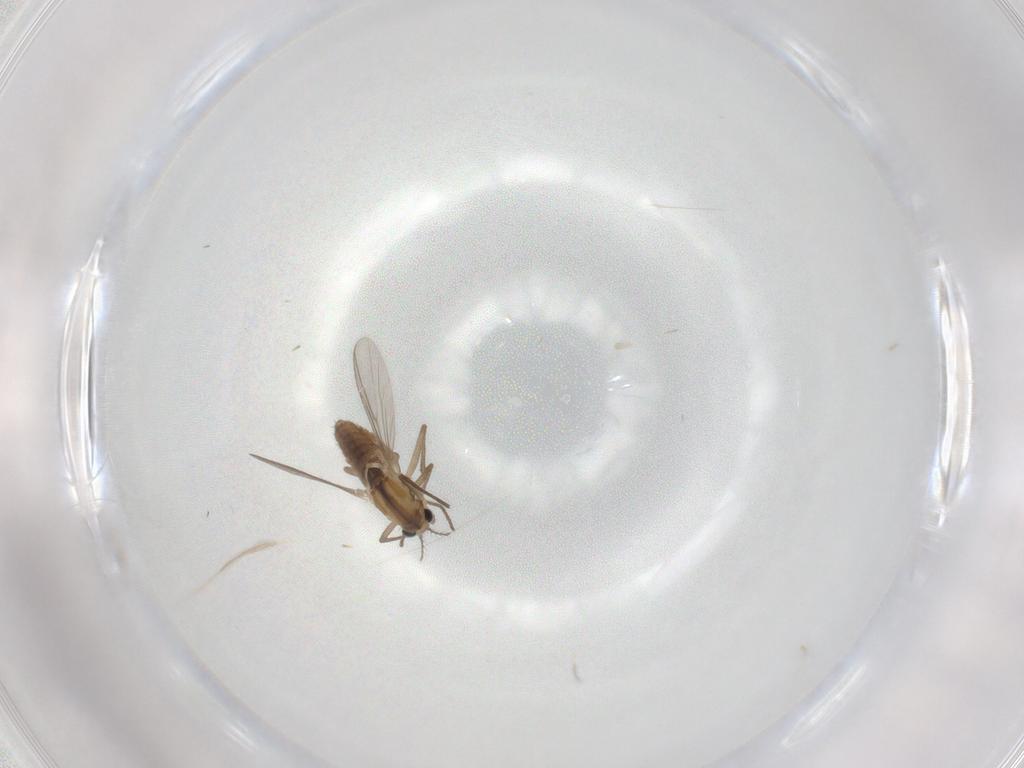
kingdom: Animalia
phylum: Arthropoda
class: Insecta
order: Diptera
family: Chironomidae
